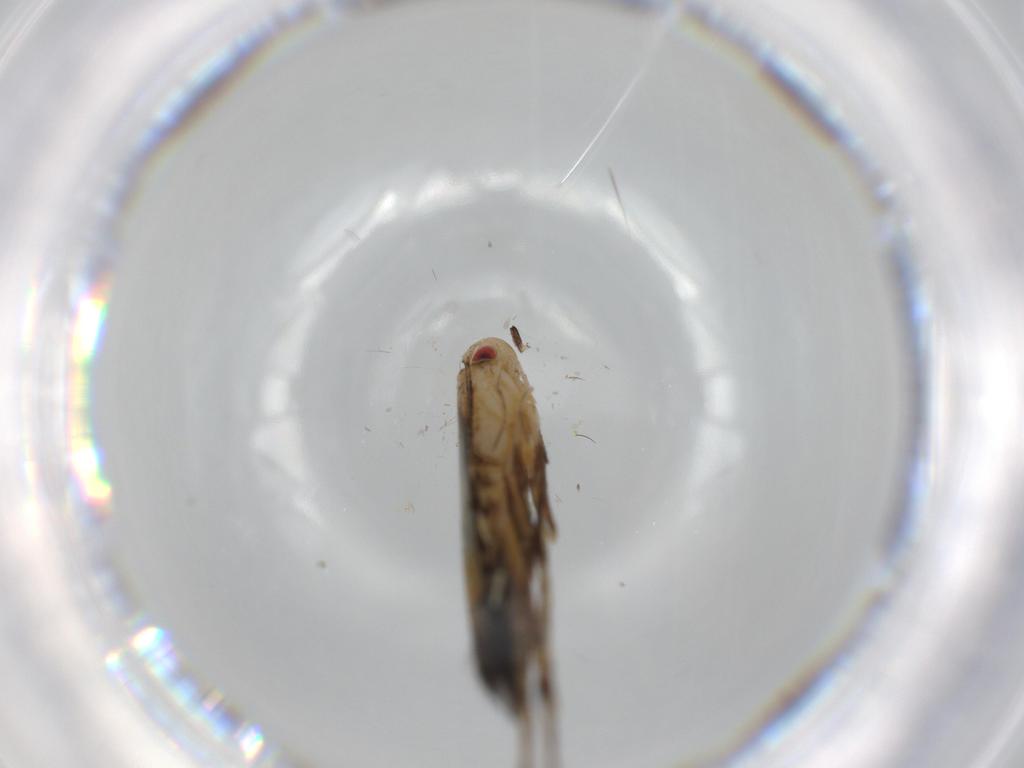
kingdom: Animalia
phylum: Arthropoda
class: Insecta
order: Lepidoptera
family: Cosmopterigidae
